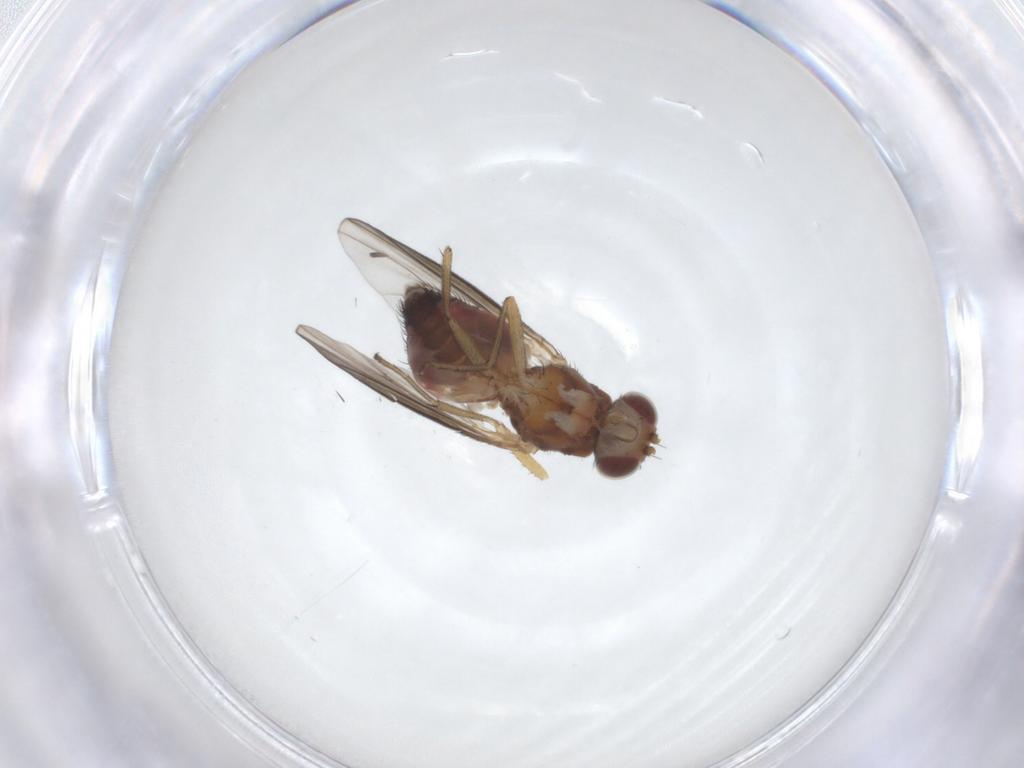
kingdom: Animalia
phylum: Arthropoda
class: Insecta
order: Diptera
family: Heleomyzidae
